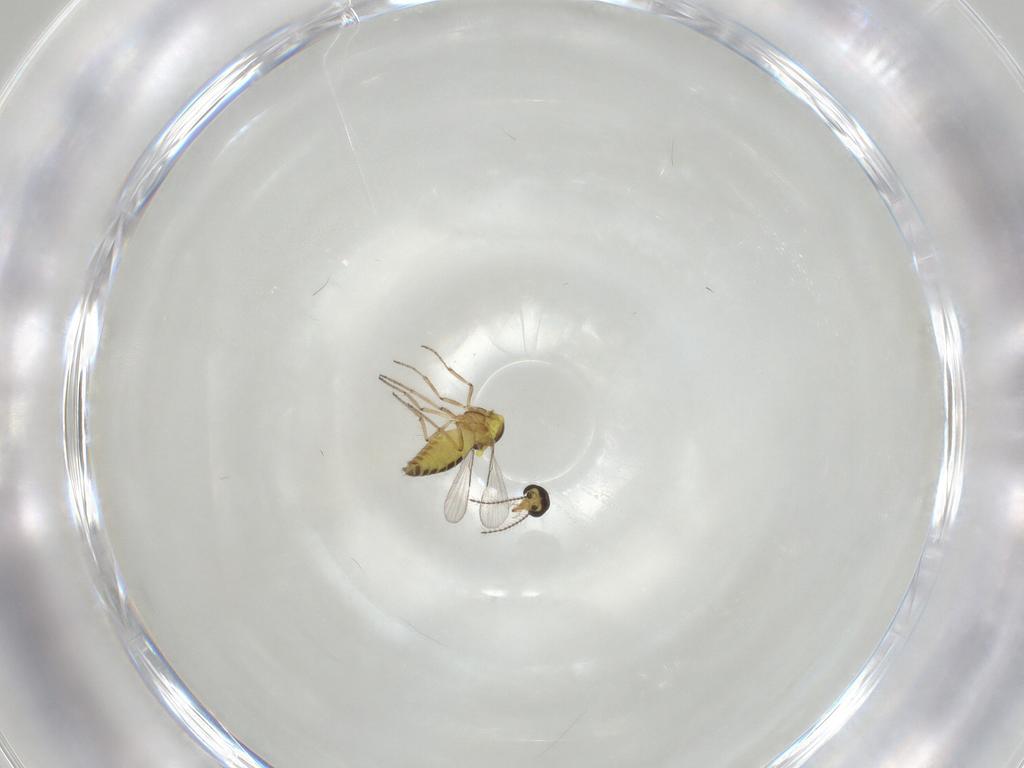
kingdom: Animalia
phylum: Arthropoda
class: Insecta
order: Diptera
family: Ceratopogonidae
